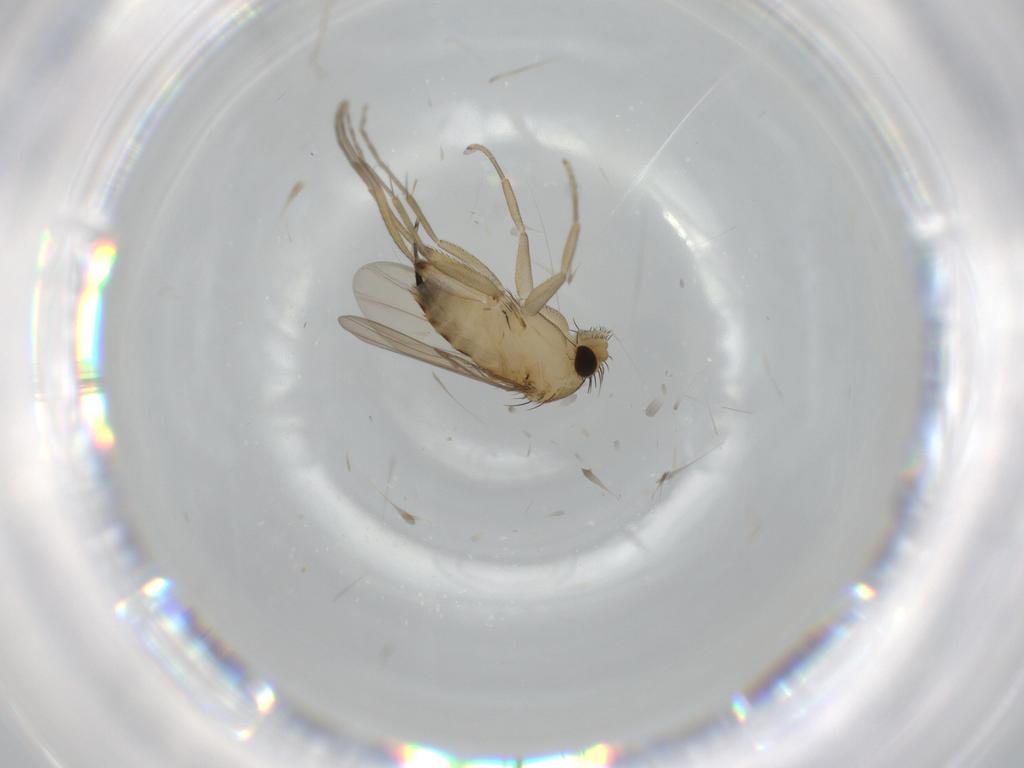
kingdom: Animalia
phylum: Arthropoda
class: Insecta
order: Diptera
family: Phoridae
